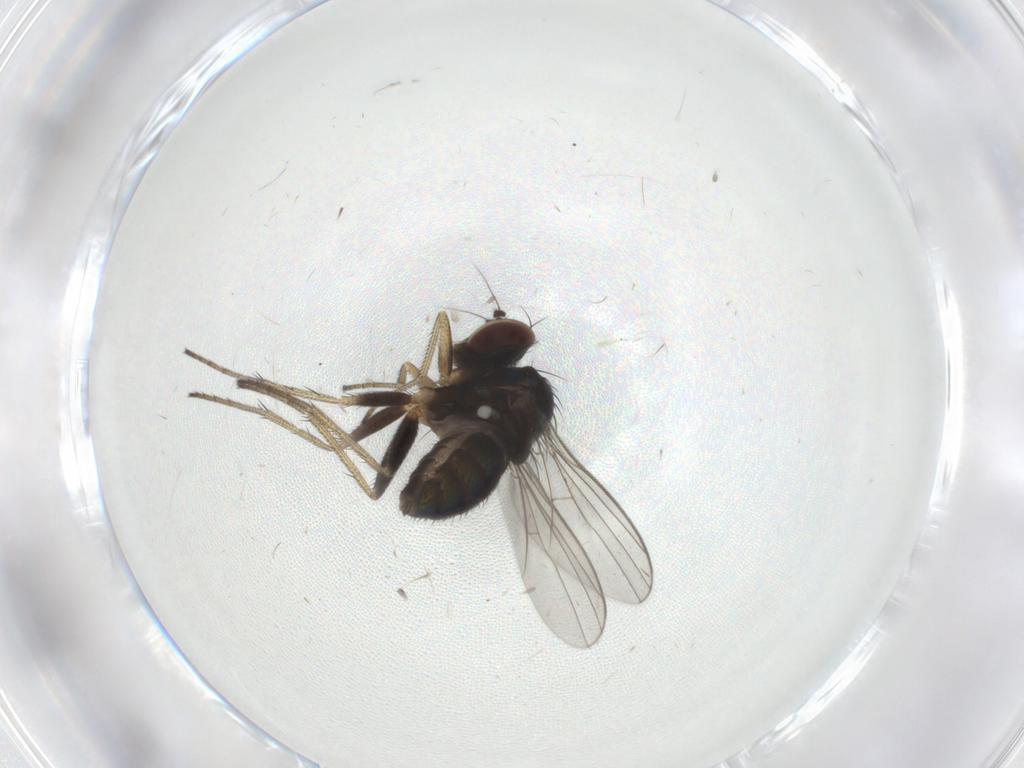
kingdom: Animalia
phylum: Arthropoda
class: Insecta
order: Diptera
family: Dolichopodidae
